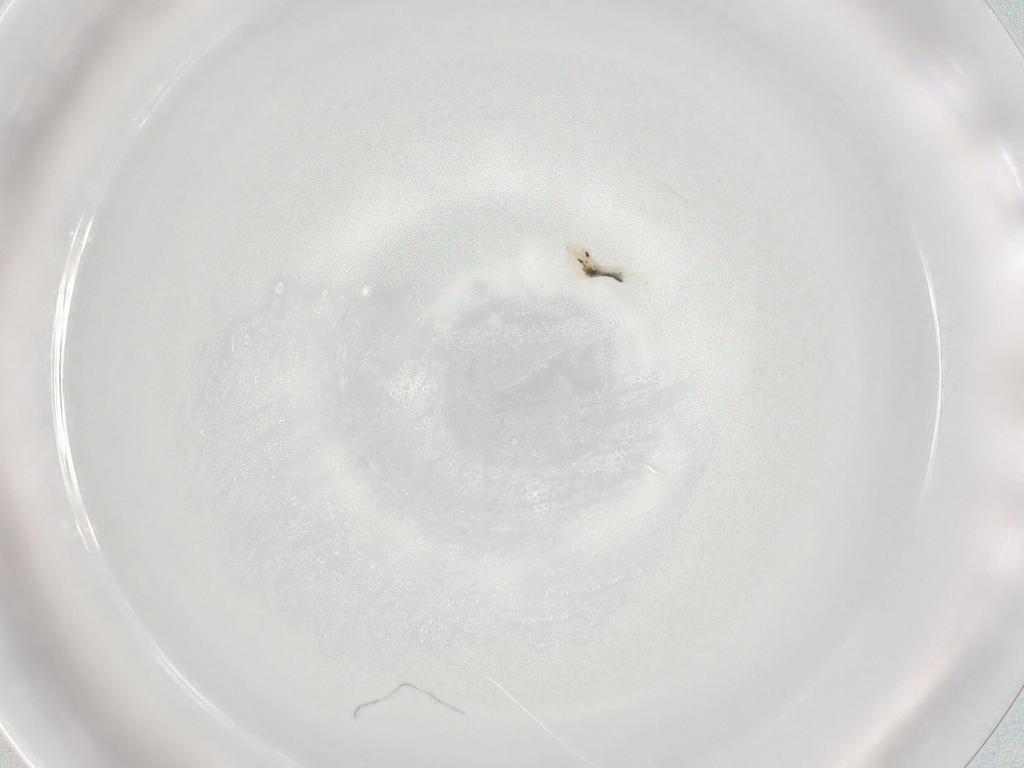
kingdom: Animalia
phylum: Arthropoda
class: Collembola
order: Entomobryomorpha
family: Entomobryidae
